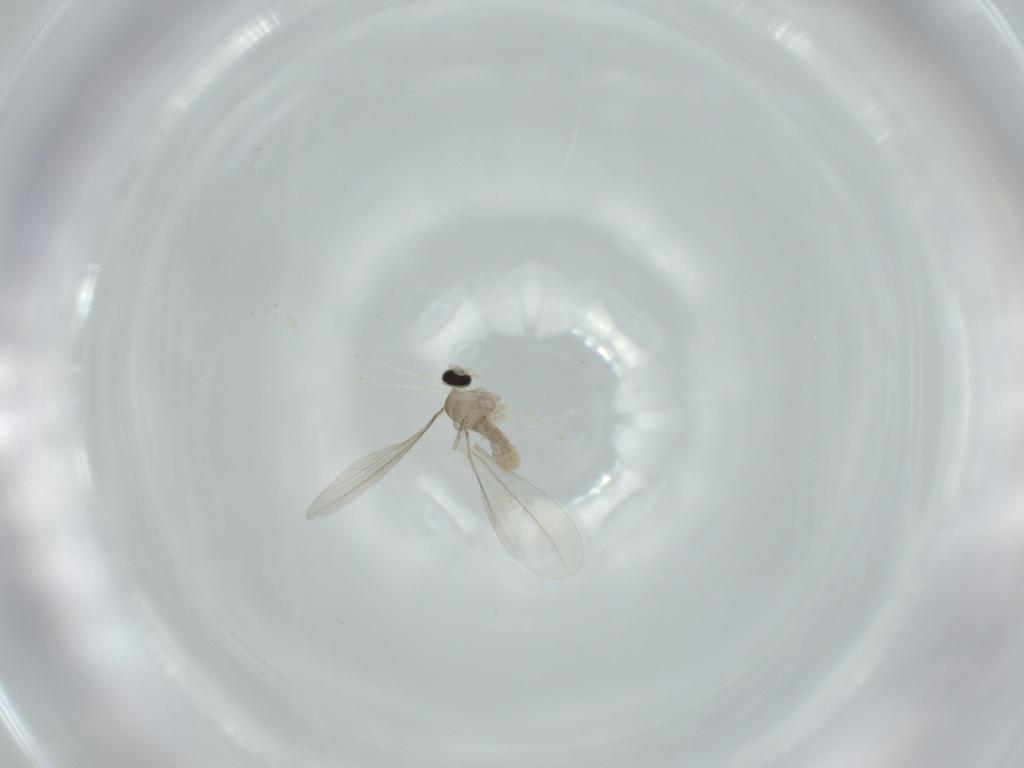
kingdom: Animalia
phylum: Arthropoda
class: Insecta
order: Diptera
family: Cecidomyiidae
